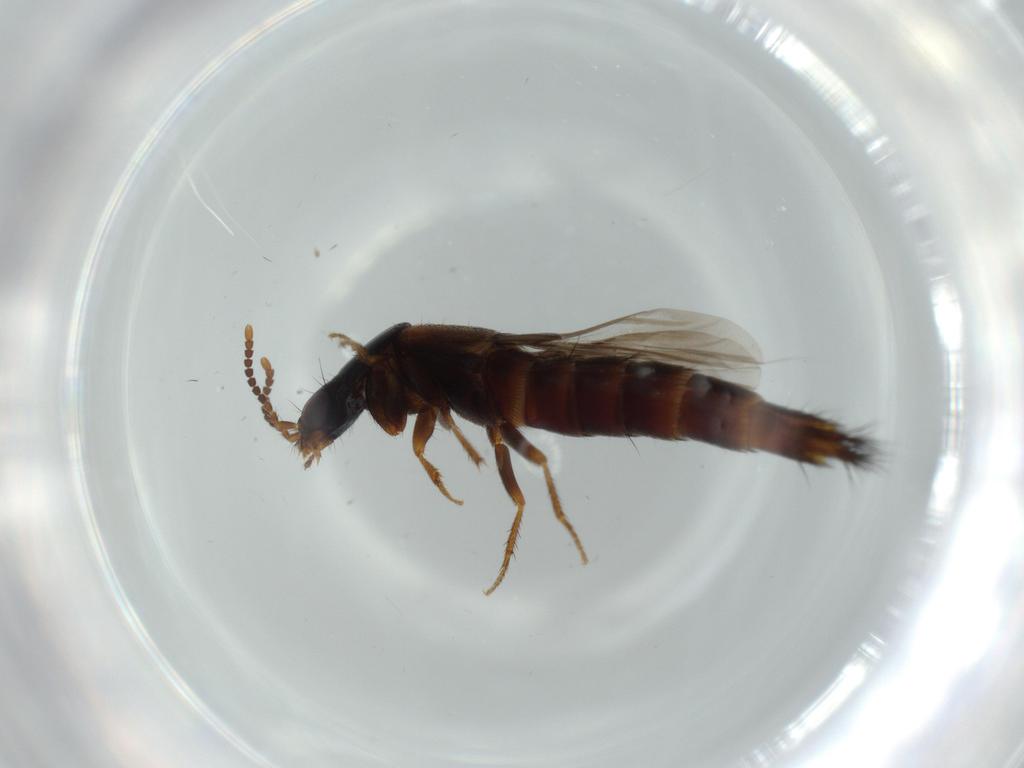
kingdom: Animalia
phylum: Arthropoda
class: Insecta
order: Coleoptera
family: Staphylinidae
